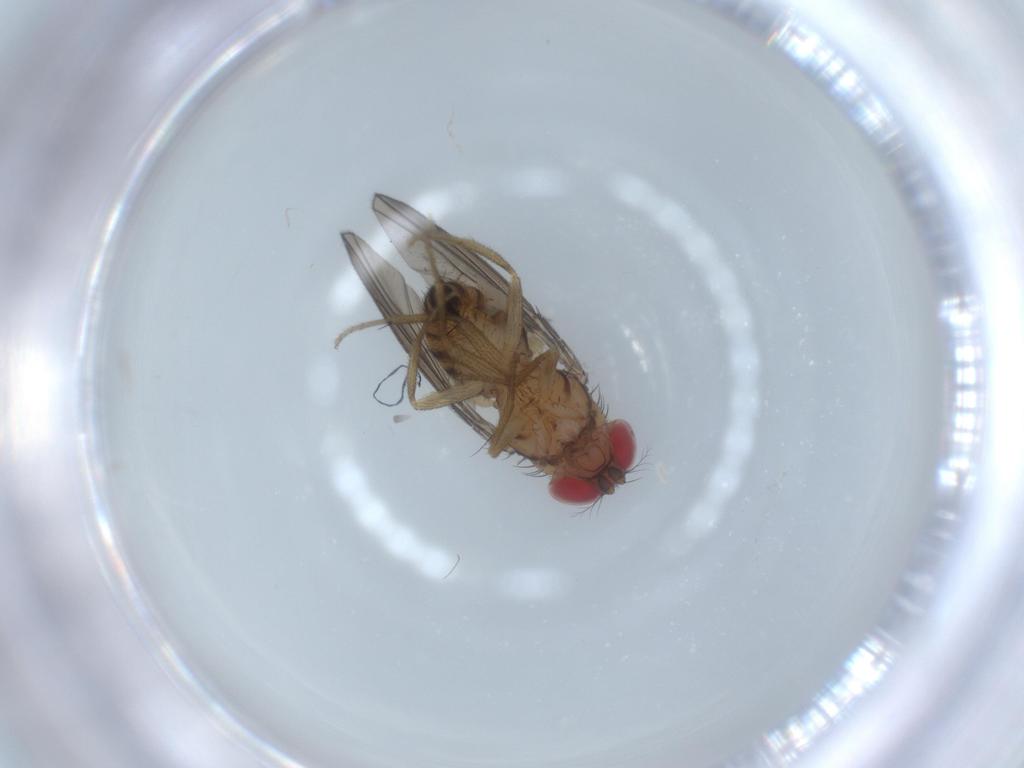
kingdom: Animalia
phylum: Arthropoda
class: Insecta
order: Diptera
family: Drosophilidae
